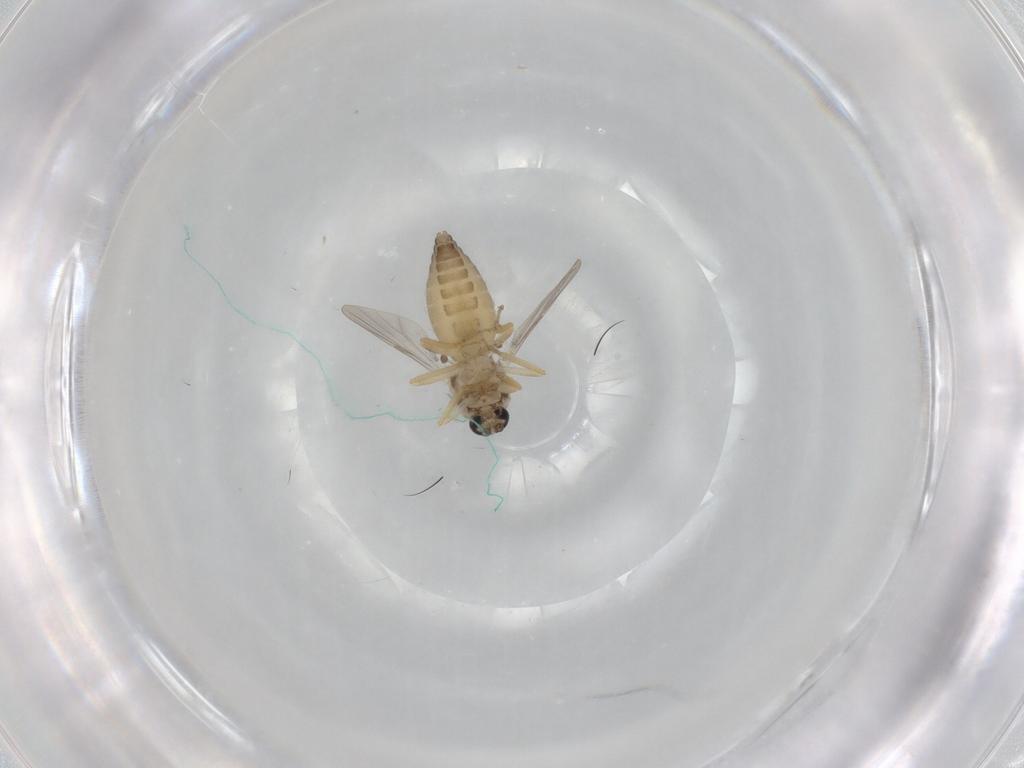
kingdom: Animalia
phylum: Arthropoda
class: Insecta
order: Diptera
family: Ceratopogonidae
